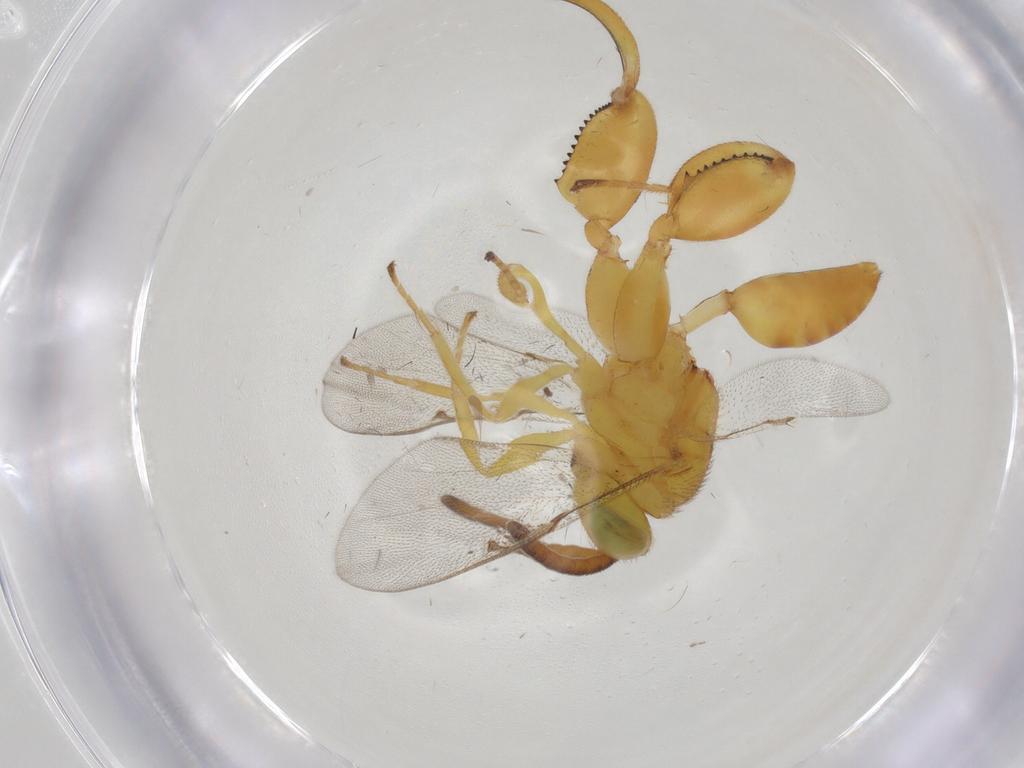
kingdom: Animalia
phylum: Arthropoda
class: Insecta
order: Hymenoptera
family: Chalcididae
